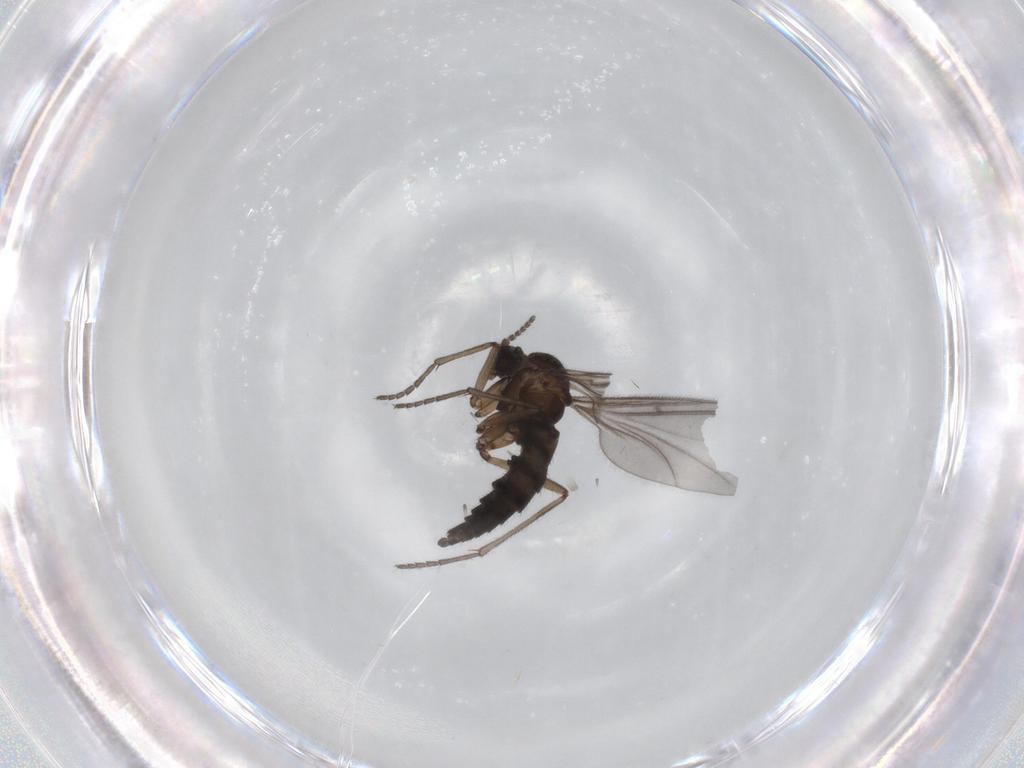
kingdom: Animalia
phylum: Arthropoda
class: Insecta
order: Diptera
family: Sciaridae
